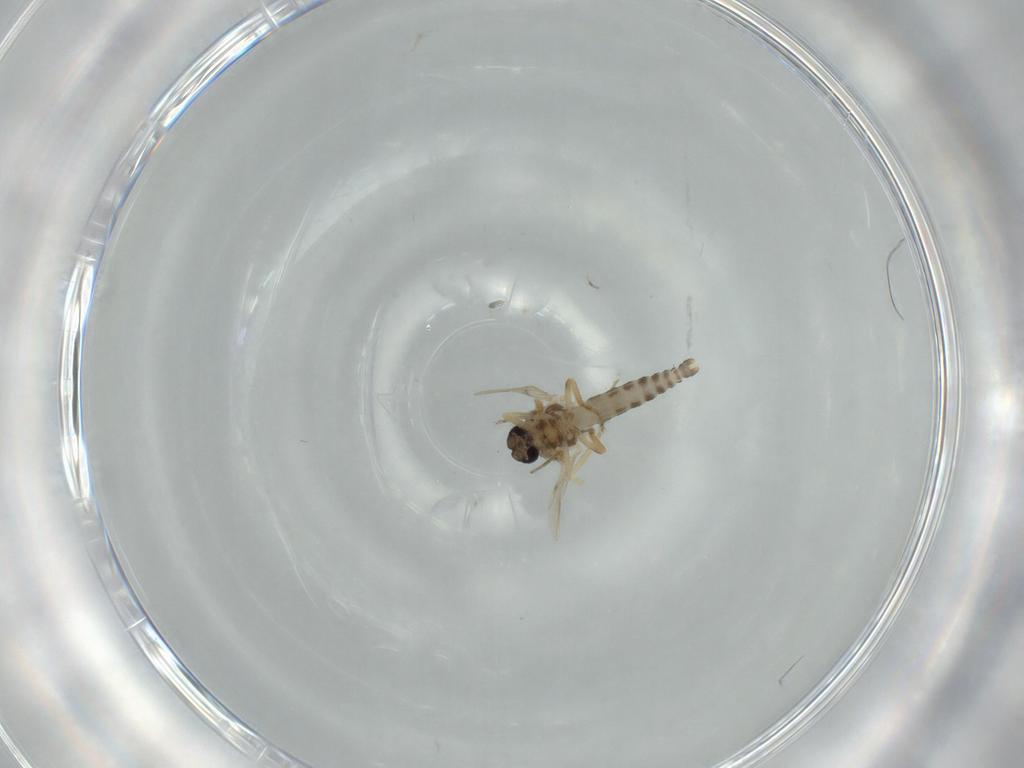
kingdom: Animalia
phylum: Arthropoda
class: Insecta
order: Diptera
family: Ceratopogonidae
